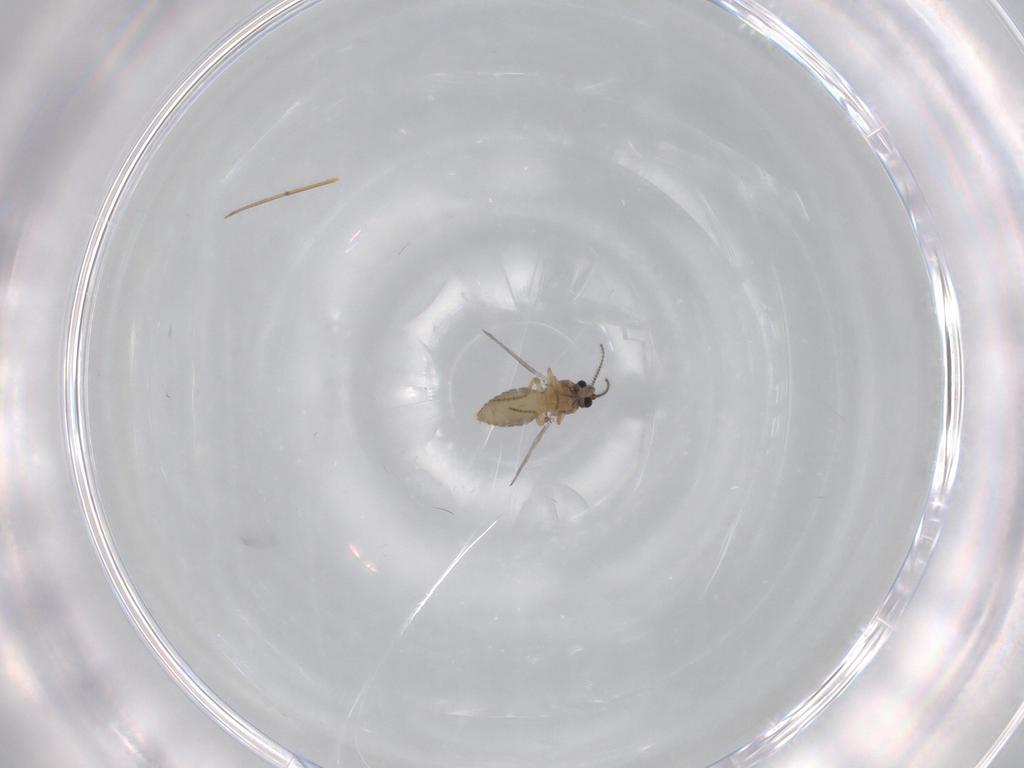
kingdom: Animalia
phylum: Arthropoda
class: Insecta
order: Diptera
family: Ceratopogonidae
